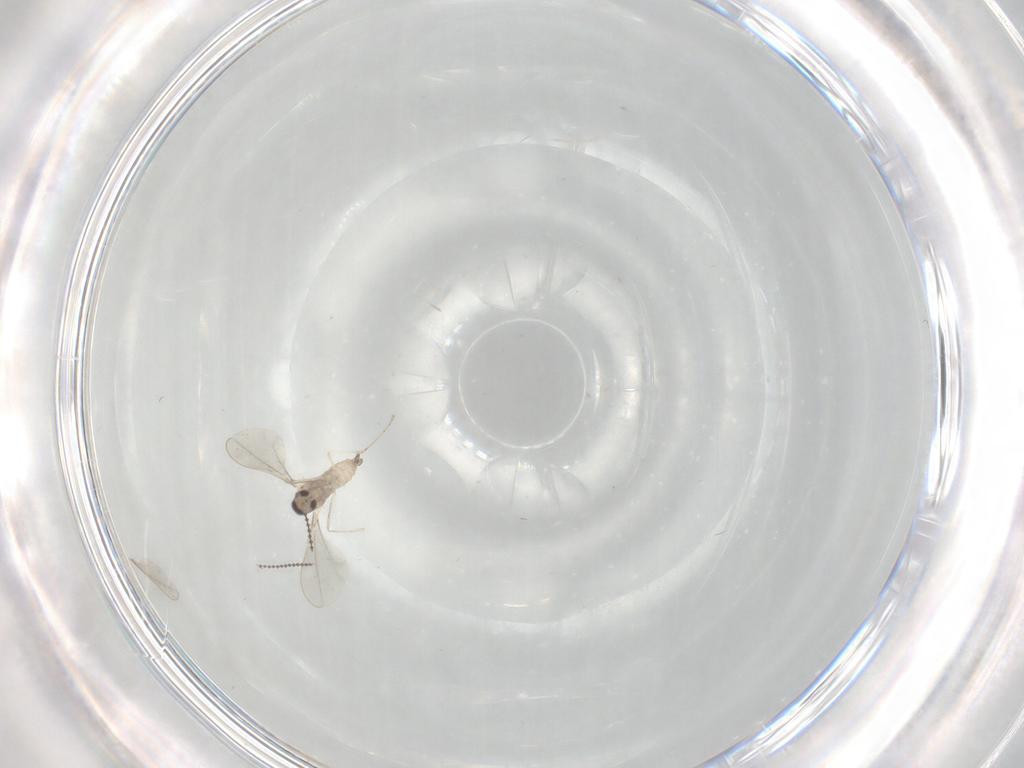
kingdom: Animalia
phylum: Arthropoda
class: Insecta
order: Diptera
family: Cecidomyiidae
